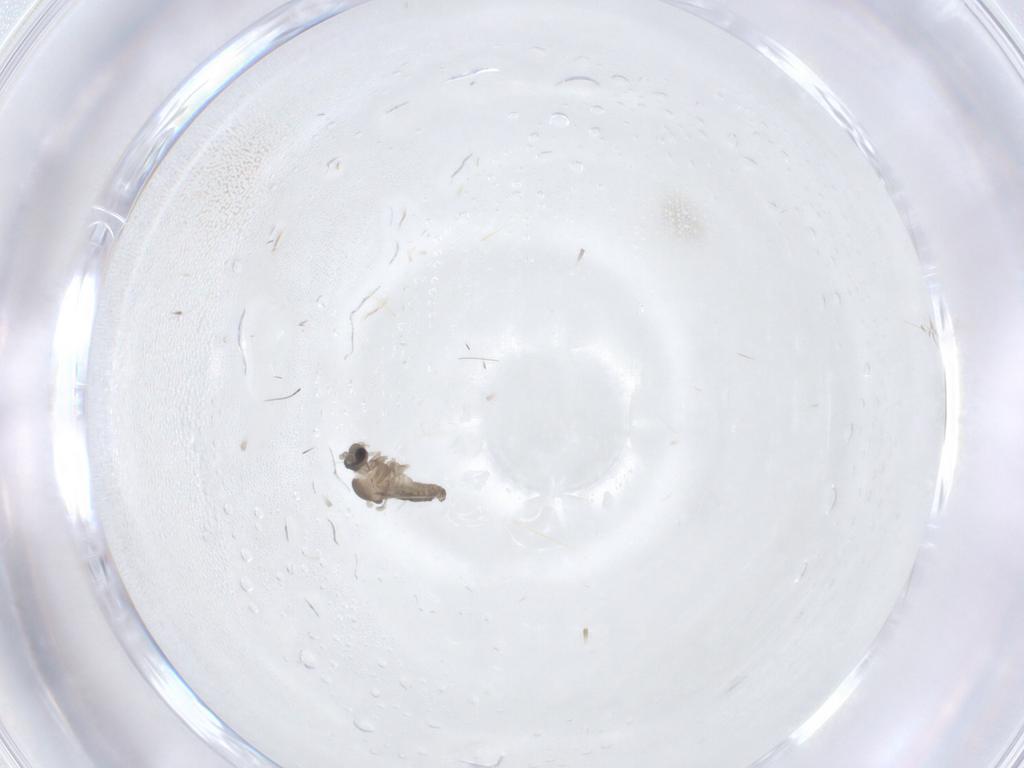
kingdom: Animalia
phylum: Arthropoda
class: Insecta
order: Diptera
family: Cecidomyiidae
